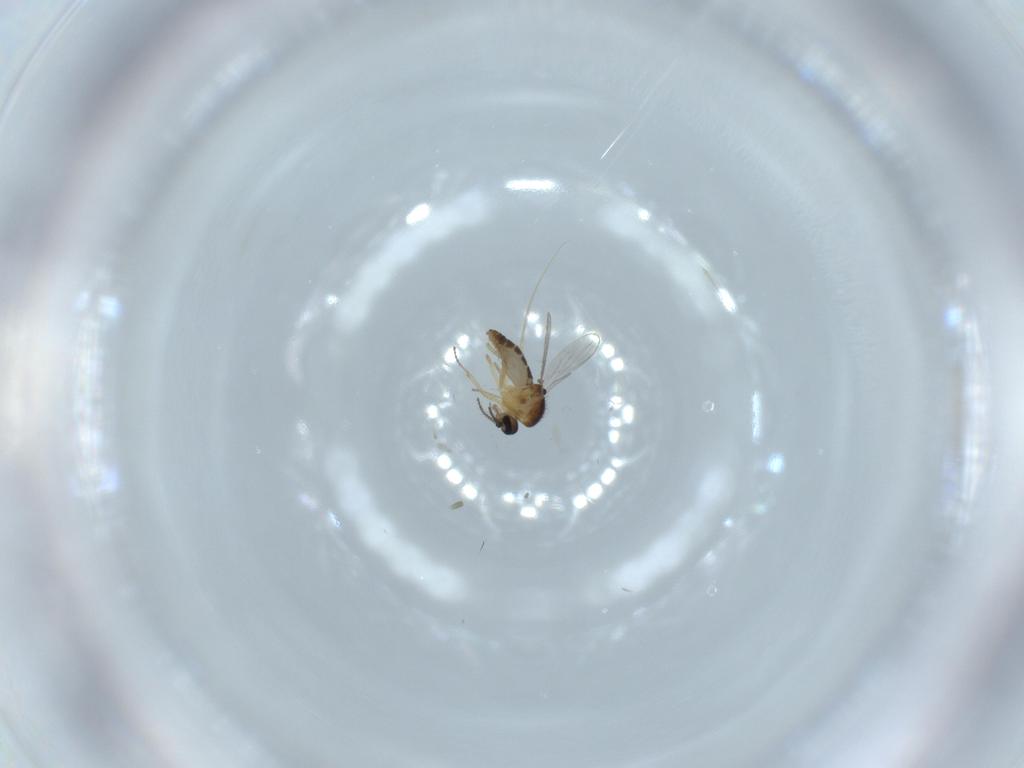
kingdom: Animalia
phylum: Arthropoda
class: Insecta
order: Diptera
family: Ceratopogonidae
